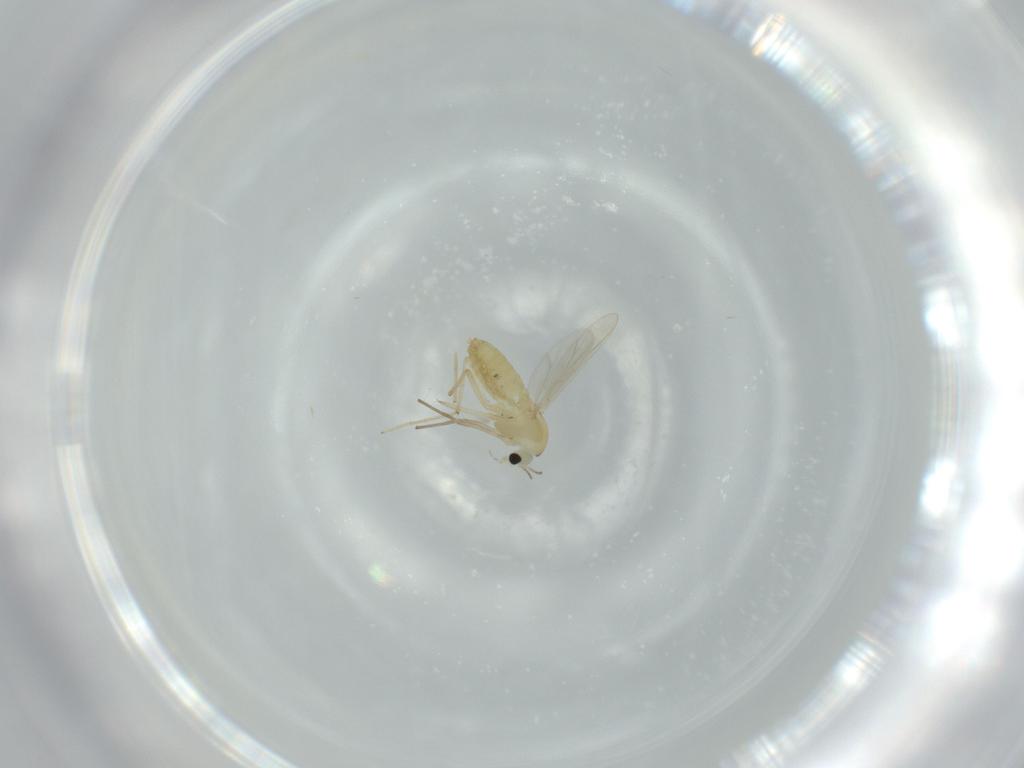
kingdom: Animalia
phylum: Arthropoda
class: Insecta
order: Diptera
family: Chironomidae
